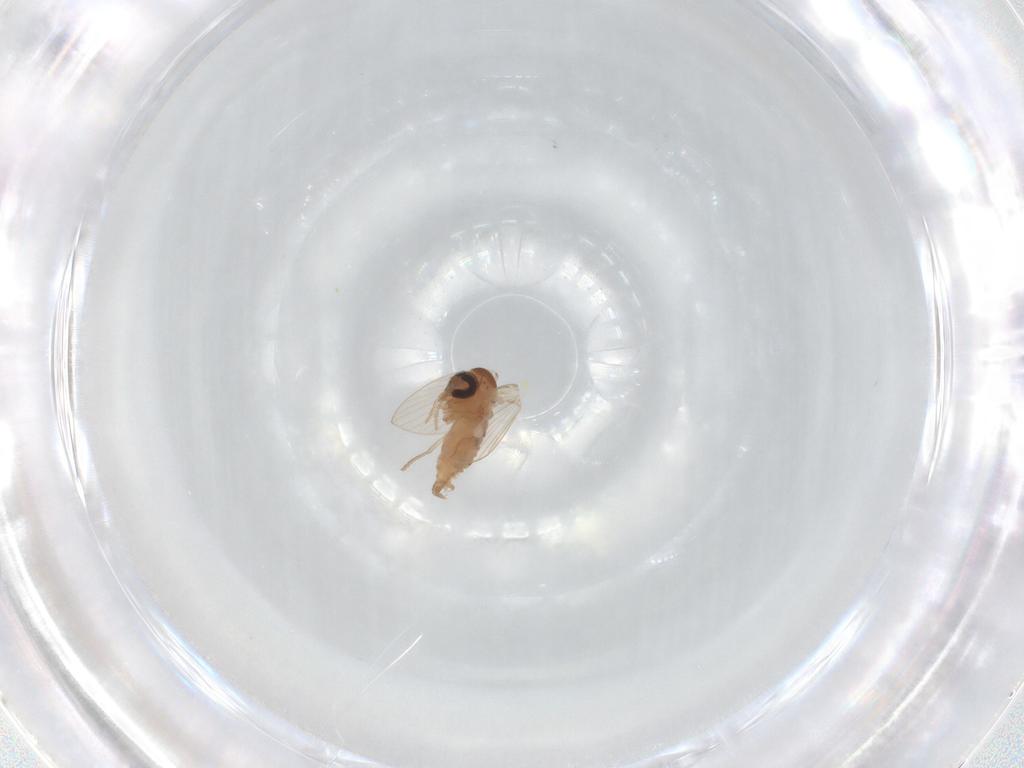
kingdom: Animalia
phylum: Arthropoda
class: Insecta
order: Diptera
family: Psychodidae
